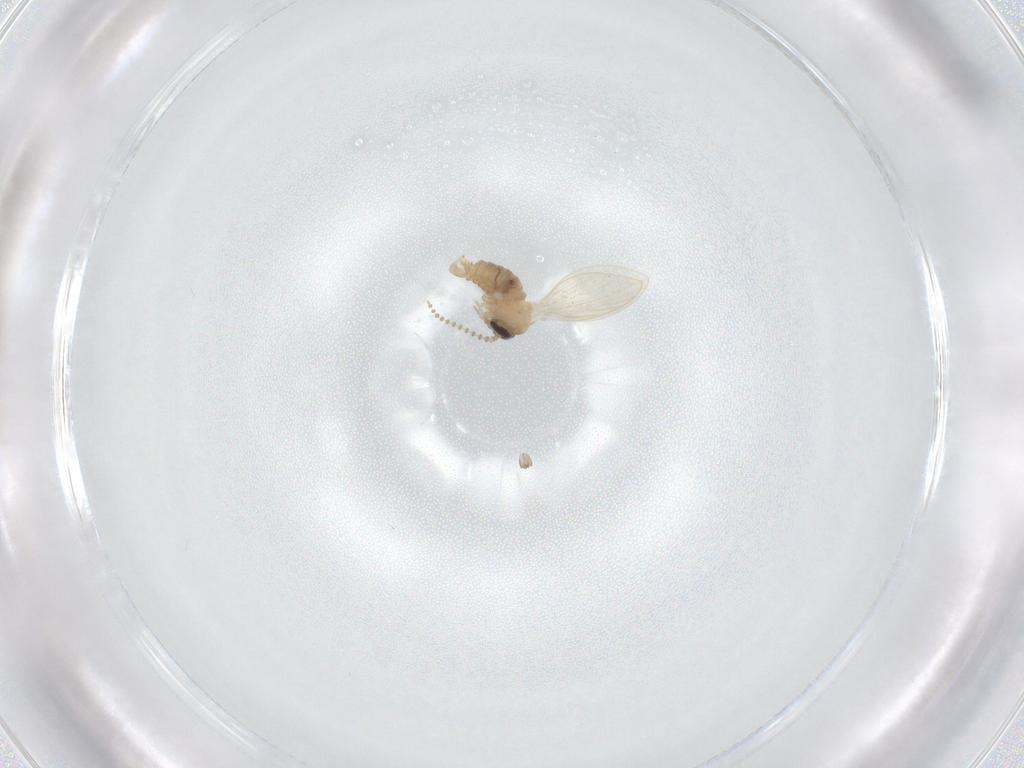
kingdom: Animalia
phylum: Arthropoda
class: Insecta
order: Diptera
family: Psychodidae
